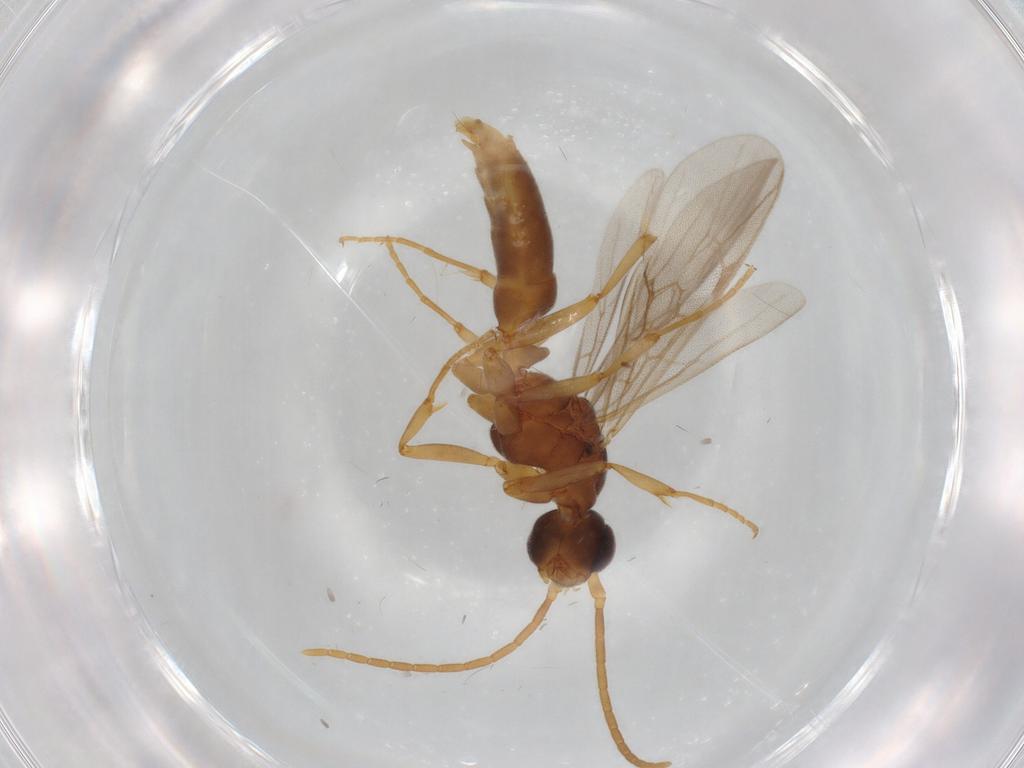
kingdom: Animalia
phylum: Arthropoda
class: Insecta
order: Hymenoptera
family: Formicidae
